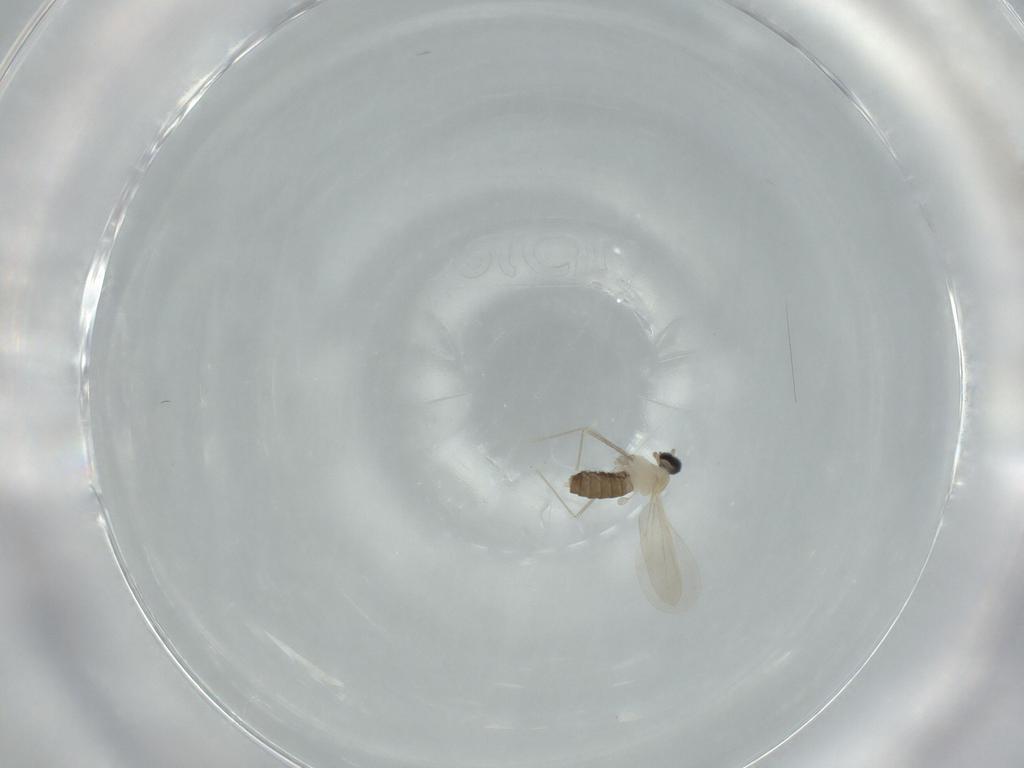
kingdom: Animalia
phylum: Arthropoda
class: Insecta
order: Diptera
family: Cecidomyiidae
